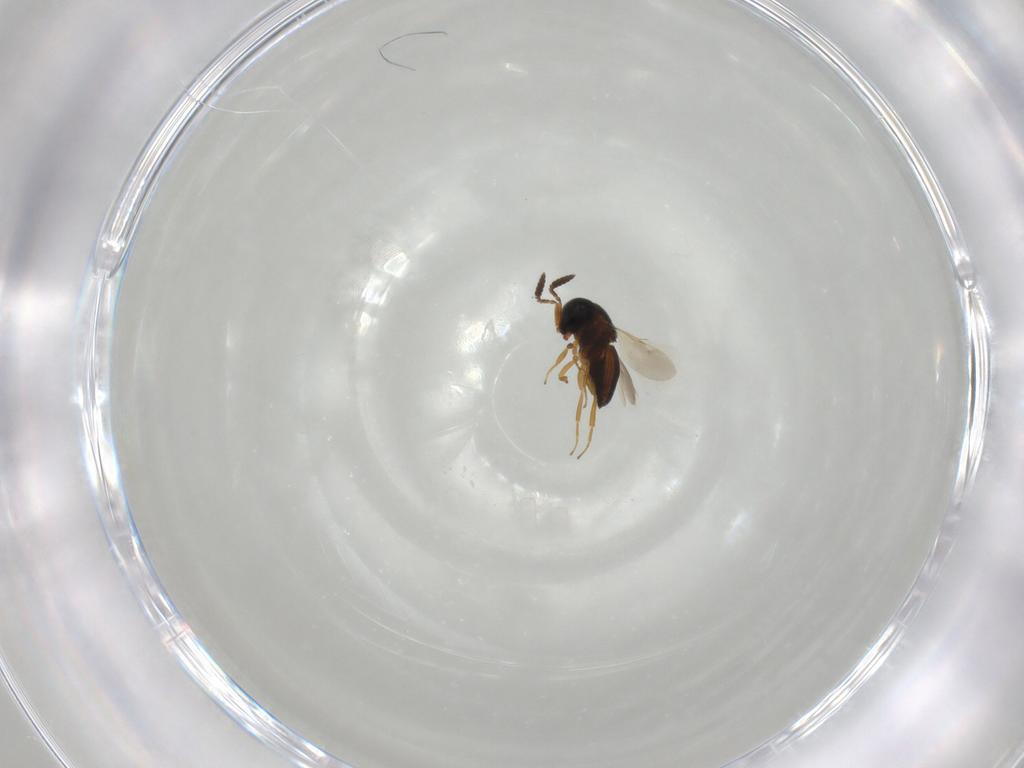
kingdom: Animalia
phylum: Arthropoda
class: Insecta
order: Hymenoptera
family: Scelionidae
